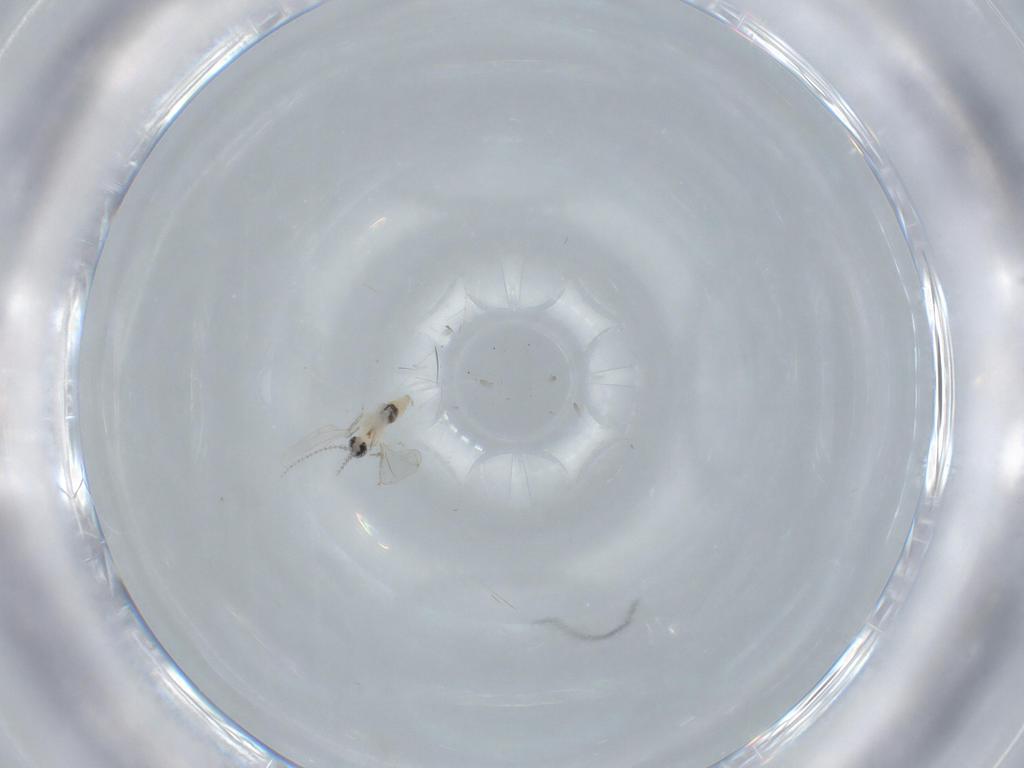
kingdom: Animalia
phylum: Arthropoda
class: Insecta
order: Diptera
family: Cecidomyiidae
